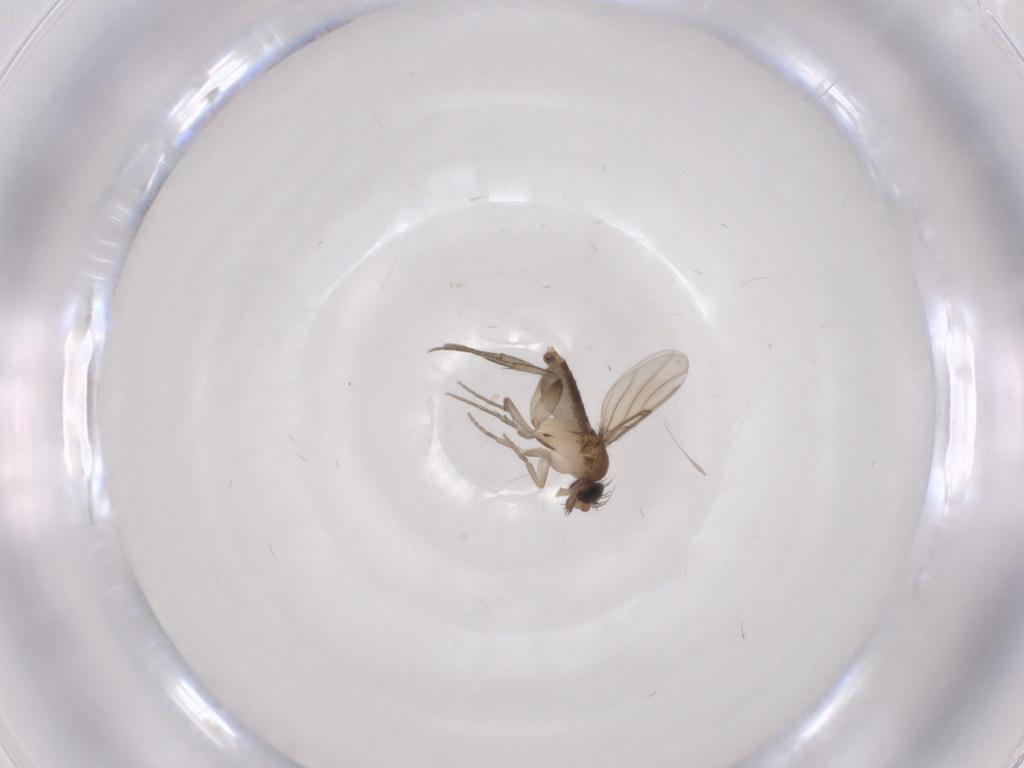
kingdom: Animalia
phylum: Arthropoda
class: Insecta
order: Diptera
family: Phoridae
